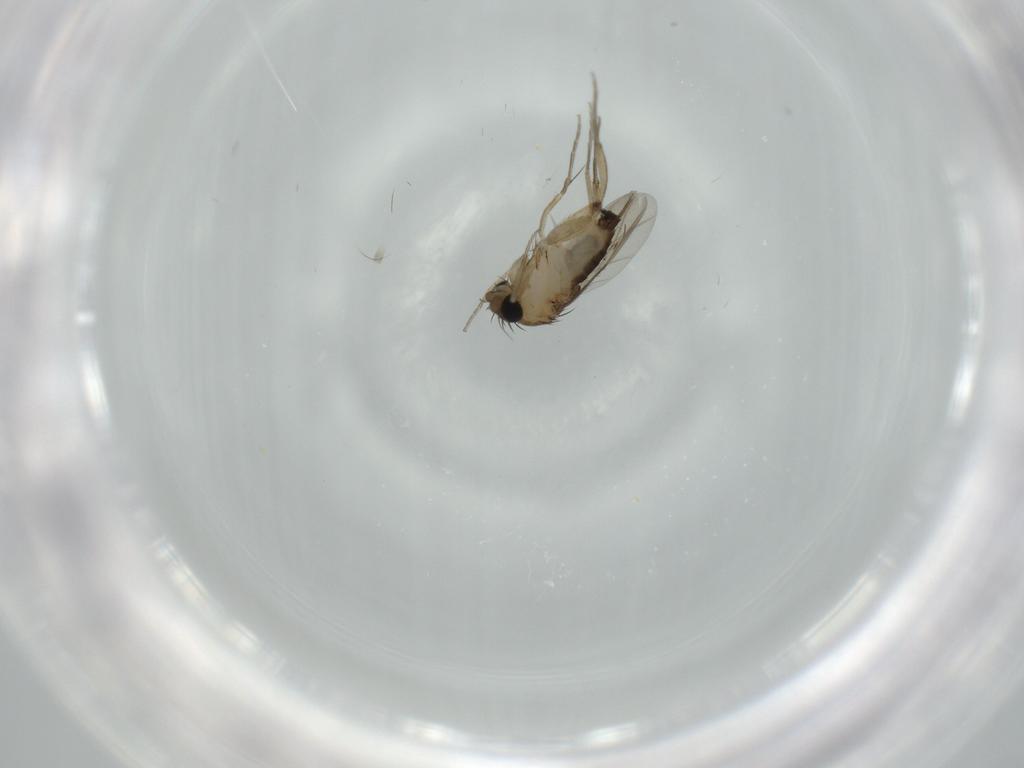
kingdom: Animalia
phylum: Arthropoda
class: Insecta
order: Diptera
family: Phoridae
